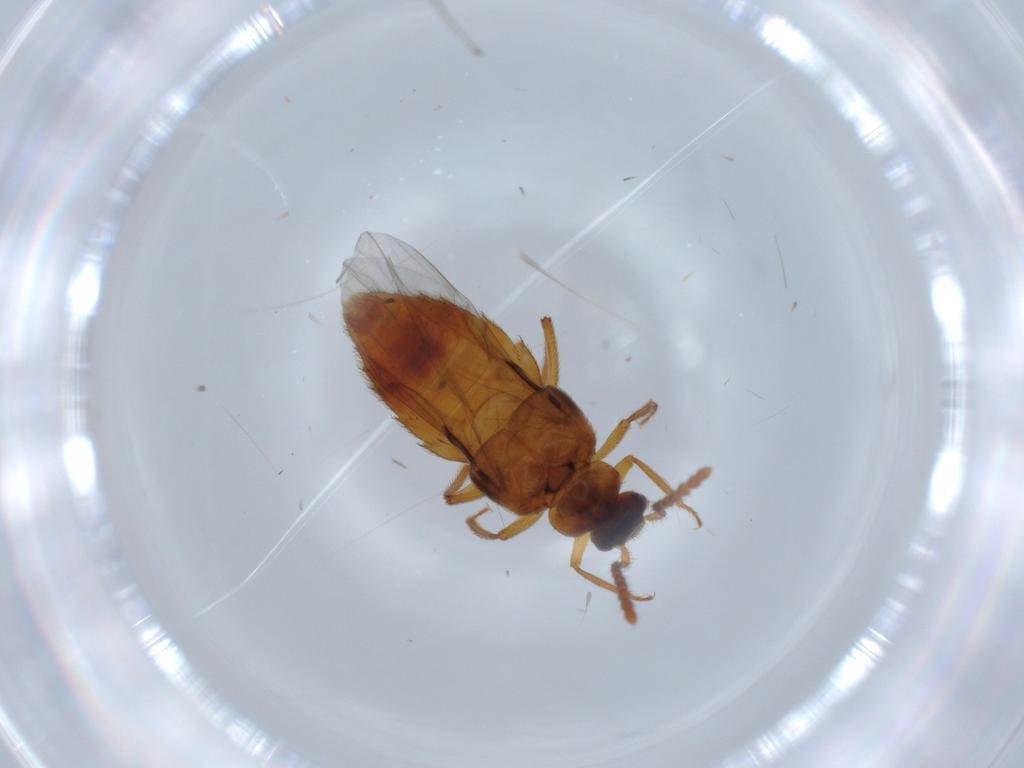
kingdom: Animalia
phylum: Arthropoda
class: Insecta
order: Coleoptera
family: Staphylinidae
